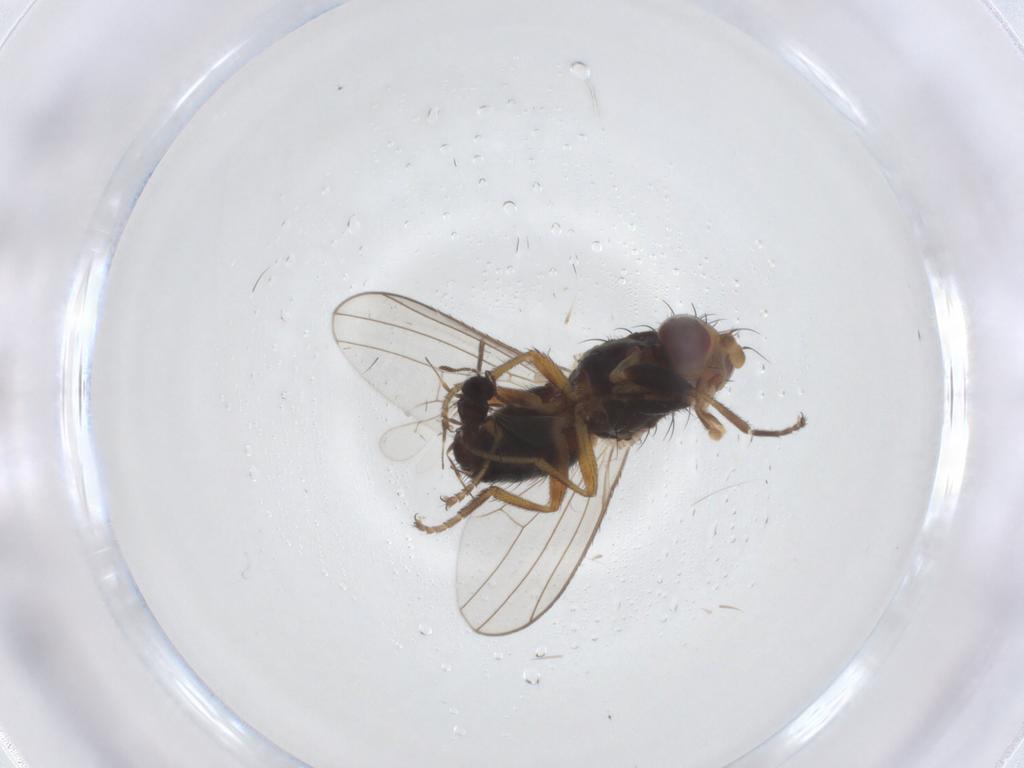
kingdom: Animalia
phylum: Arthropoda
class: Insecta
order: Diptera
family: Heleomyzidae
